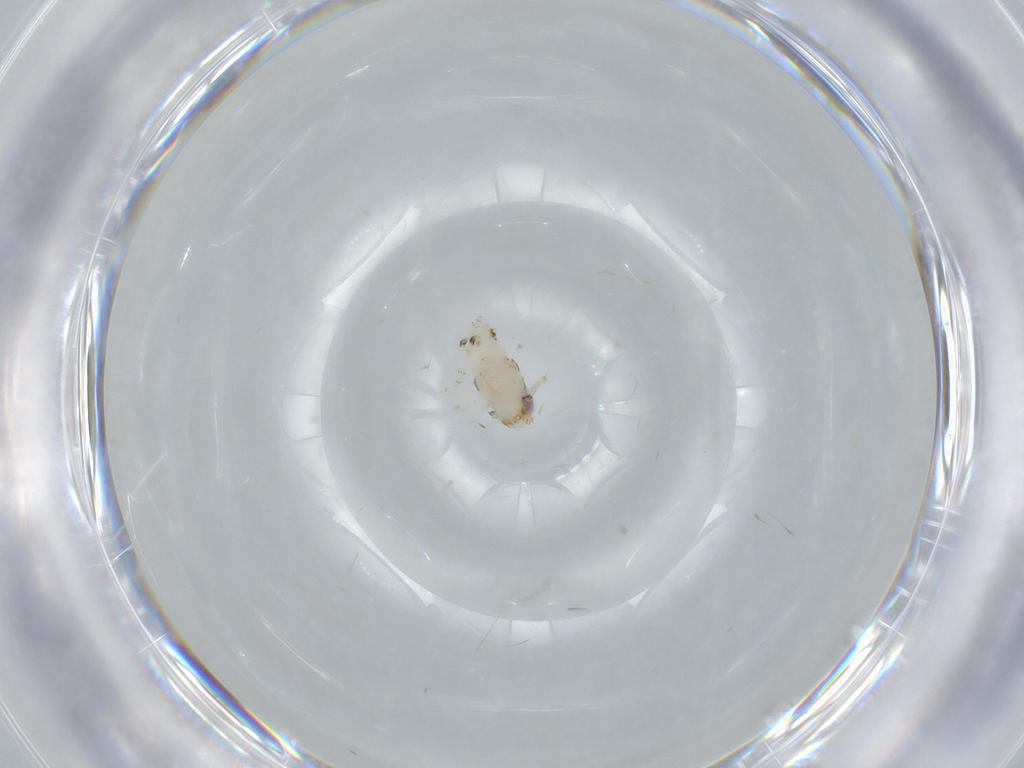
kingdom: Animalia
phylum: Arthropoda
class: Insecta
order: Hemiptera
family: Nogodinidae
